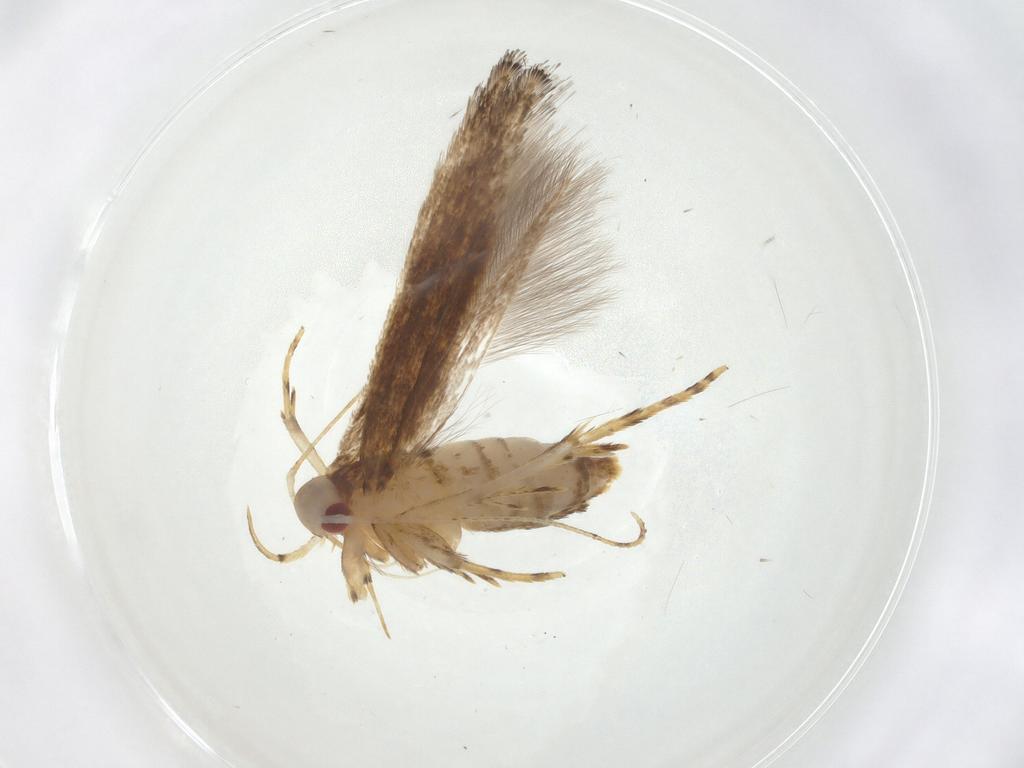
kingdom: Animalia
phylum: Arthropoda
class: Insecta
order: Lepidoptera
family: Cosmopterigidae
